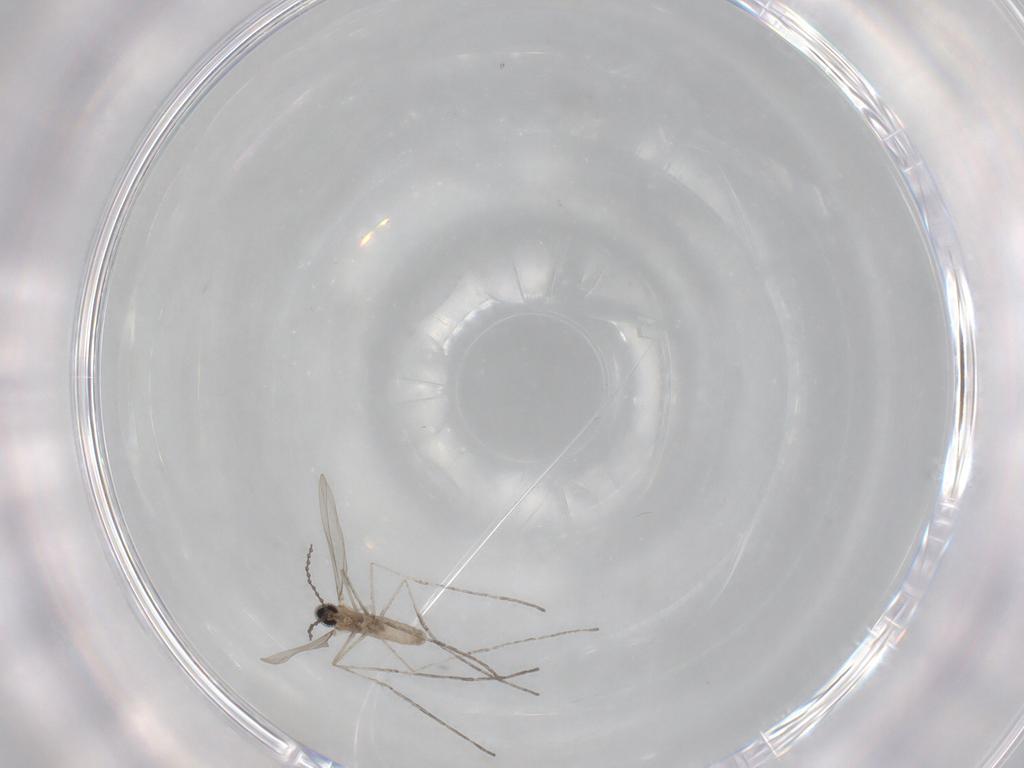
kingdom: Animalia
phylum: Arthropoda
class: Insecta
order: Diptera
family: Cecidomyiidae
